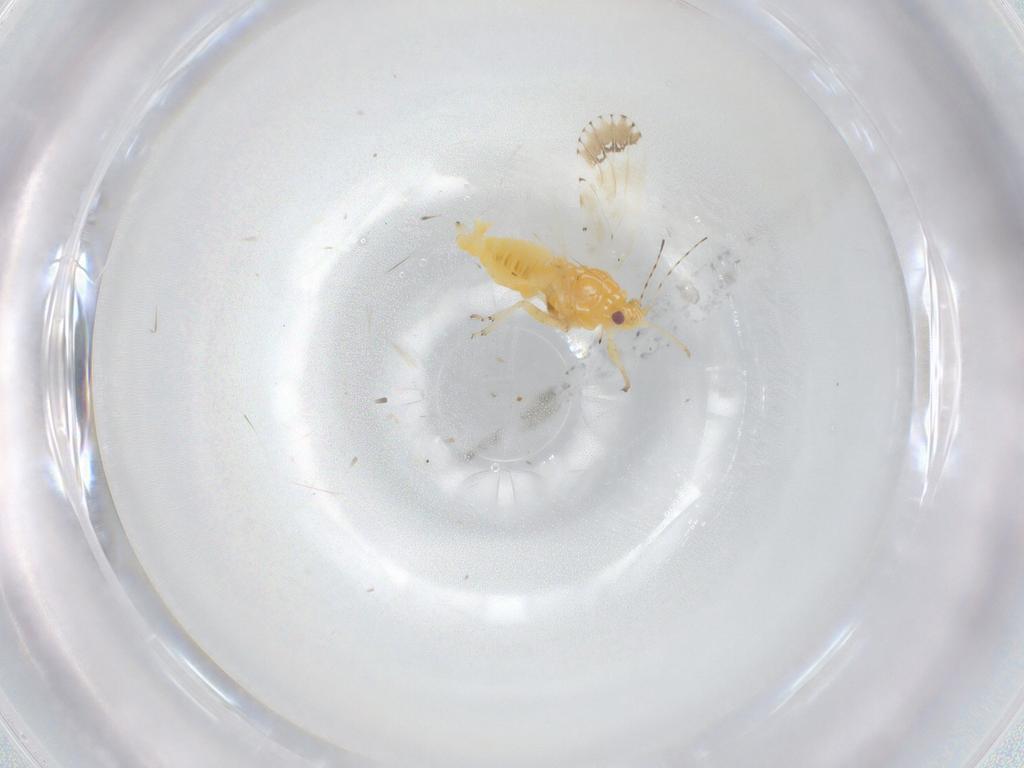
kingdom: Animalia
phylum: Arthropoda
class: Insecta
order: Hemiptera
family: Psyllidae
